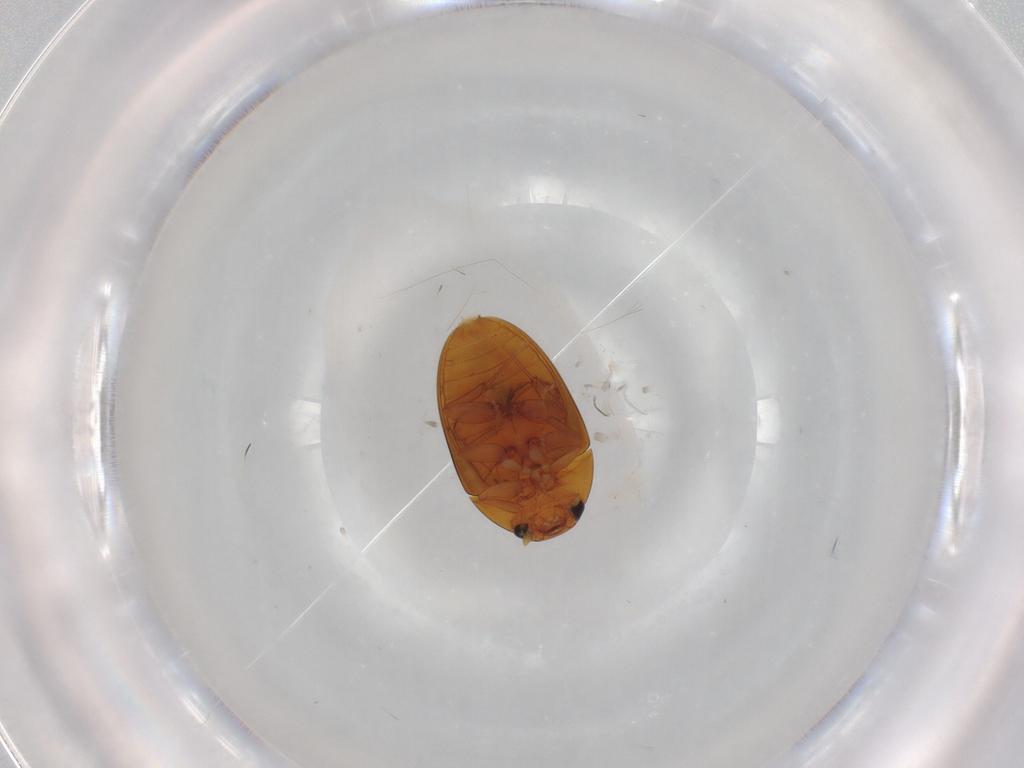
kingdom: Animalia
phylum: Arthropoda
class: Insecta
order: Coleoptera
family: Phalacridae
